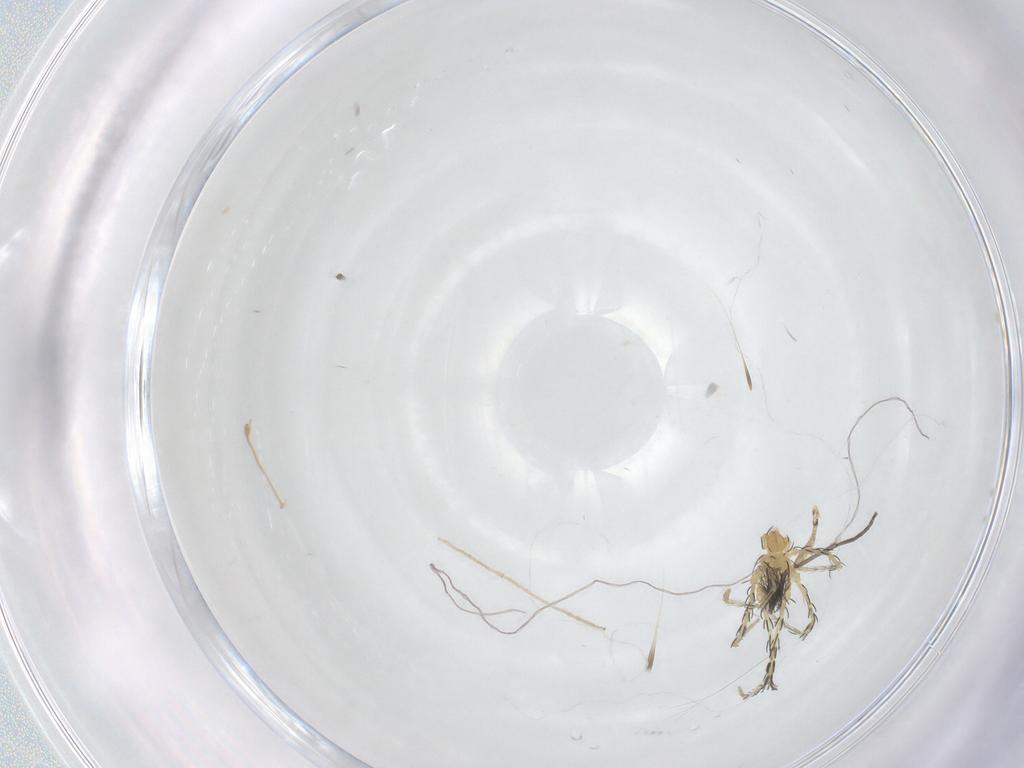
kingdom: Animalia
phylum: Arthropoda
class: Arachnida
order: Trombidiformes
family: Erythraeidae
